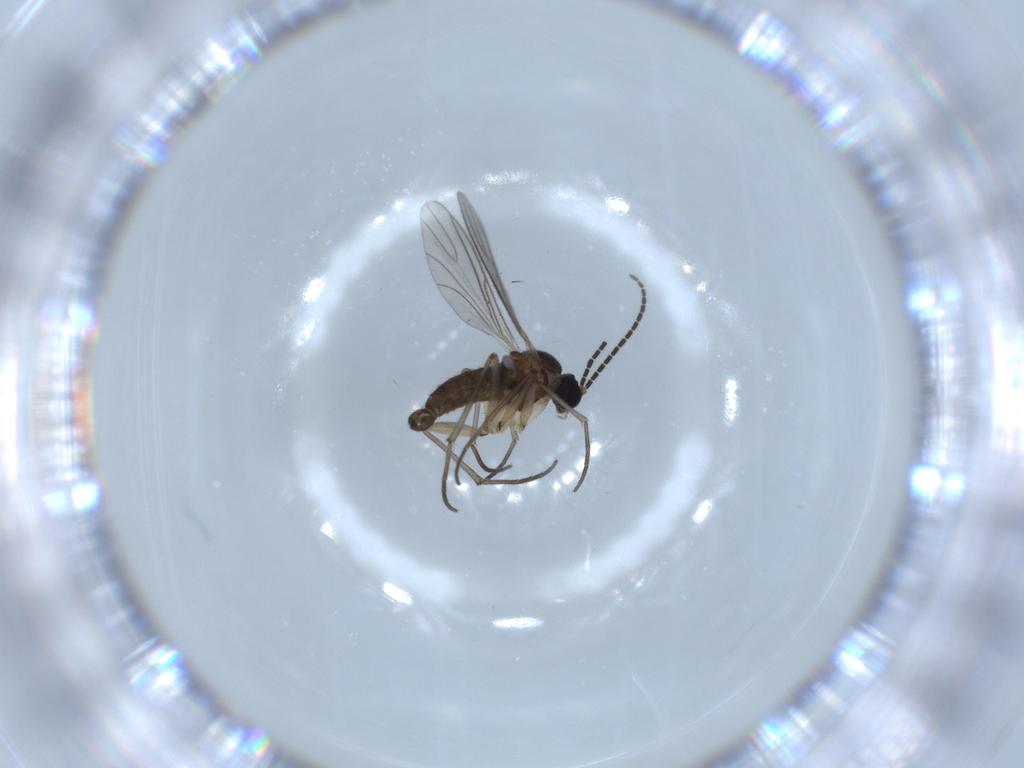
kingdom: Animalia
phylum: Arthropoda
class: Insecta
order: Diptera
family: Sciaridae
